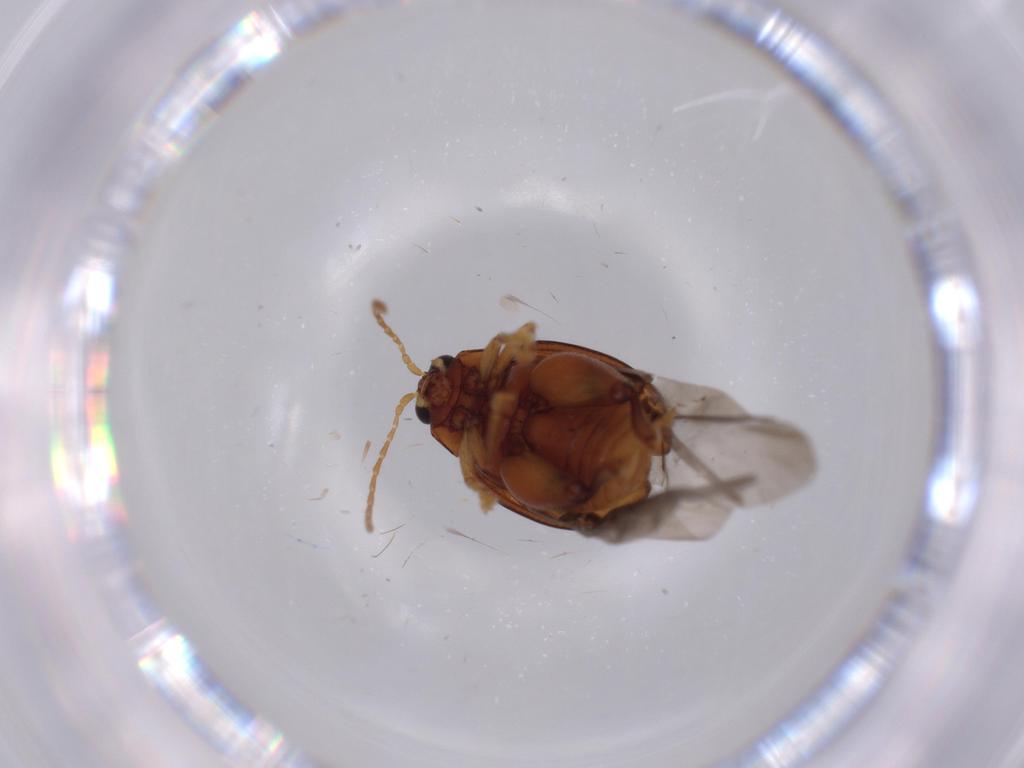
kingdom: Animalia
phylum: Arthropoda
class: Insecta
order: Coleoptera
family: Chrysomelidae
